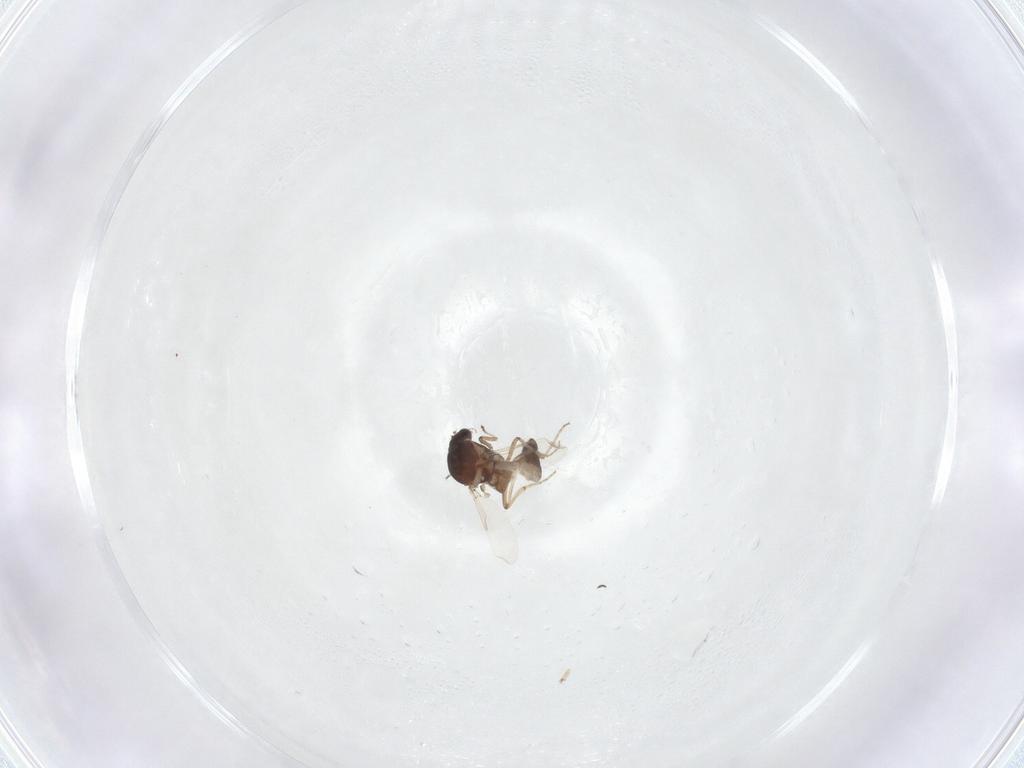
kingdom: Animalia
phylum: Arthropoda
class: Insecta
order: Diptera
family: Ceratopogonidae
